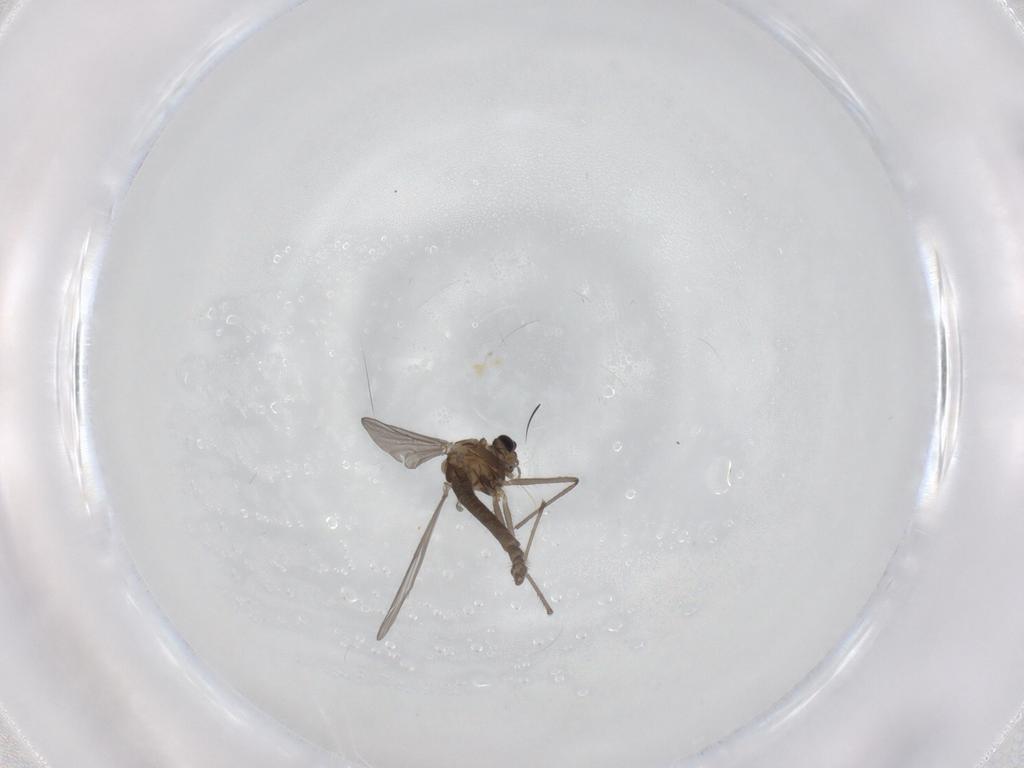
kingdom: Animalia
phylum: Arthropoda
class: Insecta
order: Diptera
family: Chironomidae
